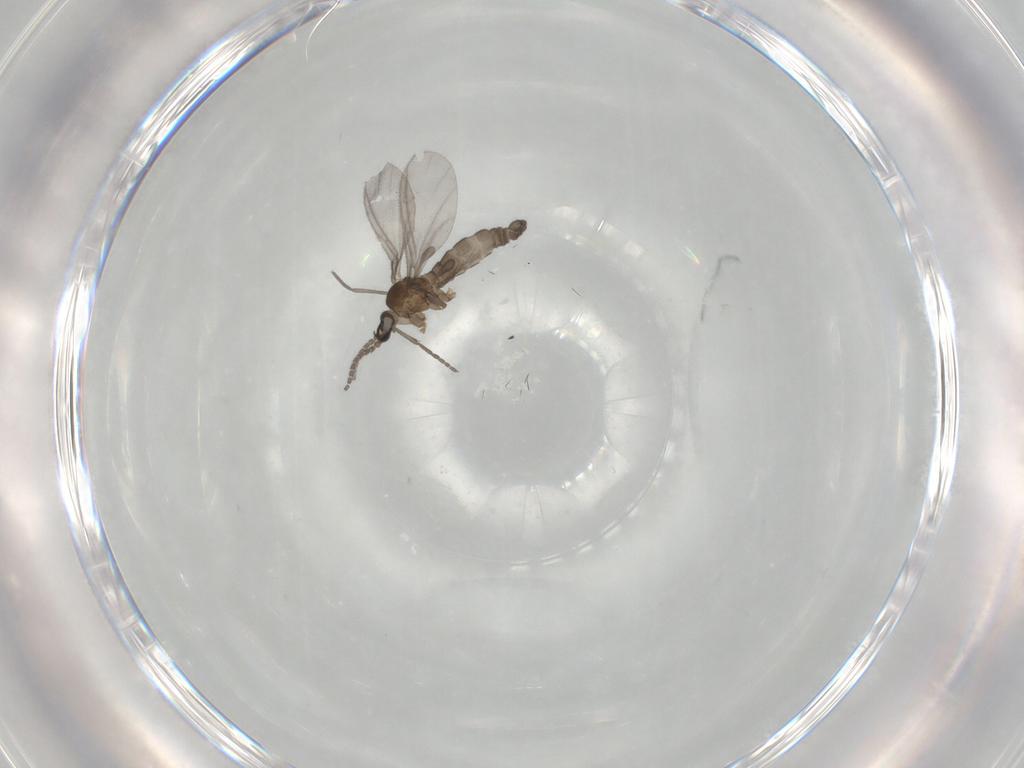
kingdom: Animalia
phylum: Arthropoda
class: Insecta
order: Diptera
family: Sciaridae
